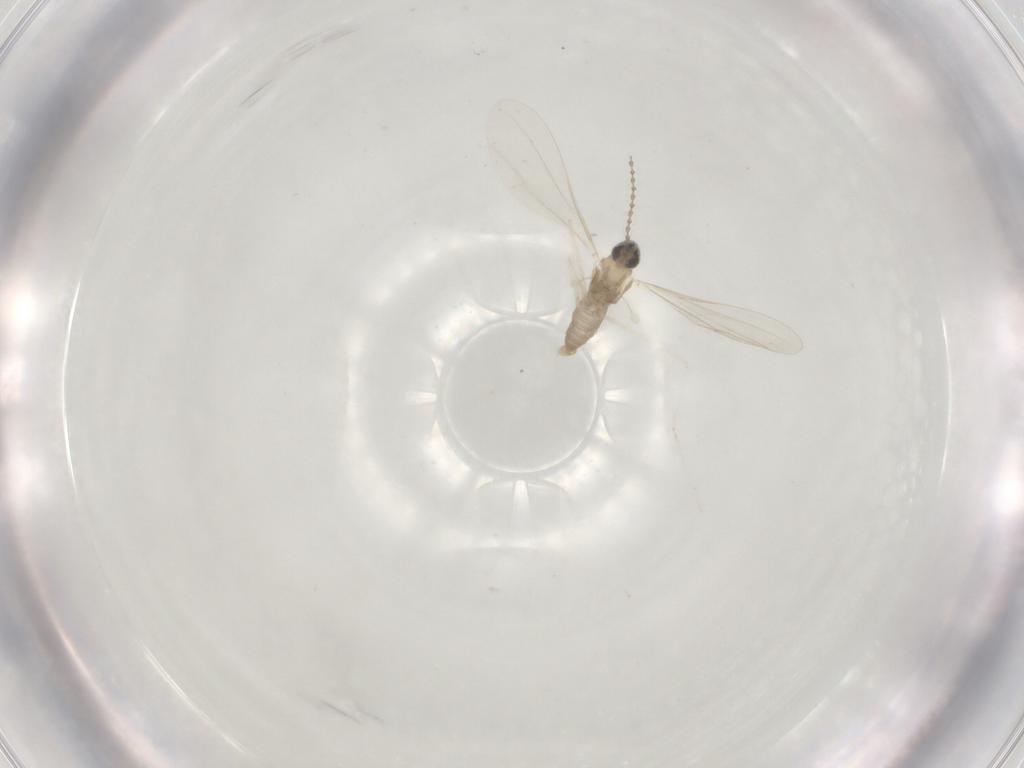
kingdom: Animalia
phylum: Arthropoda
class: Insecta
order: Diptera
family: Chloropidae
